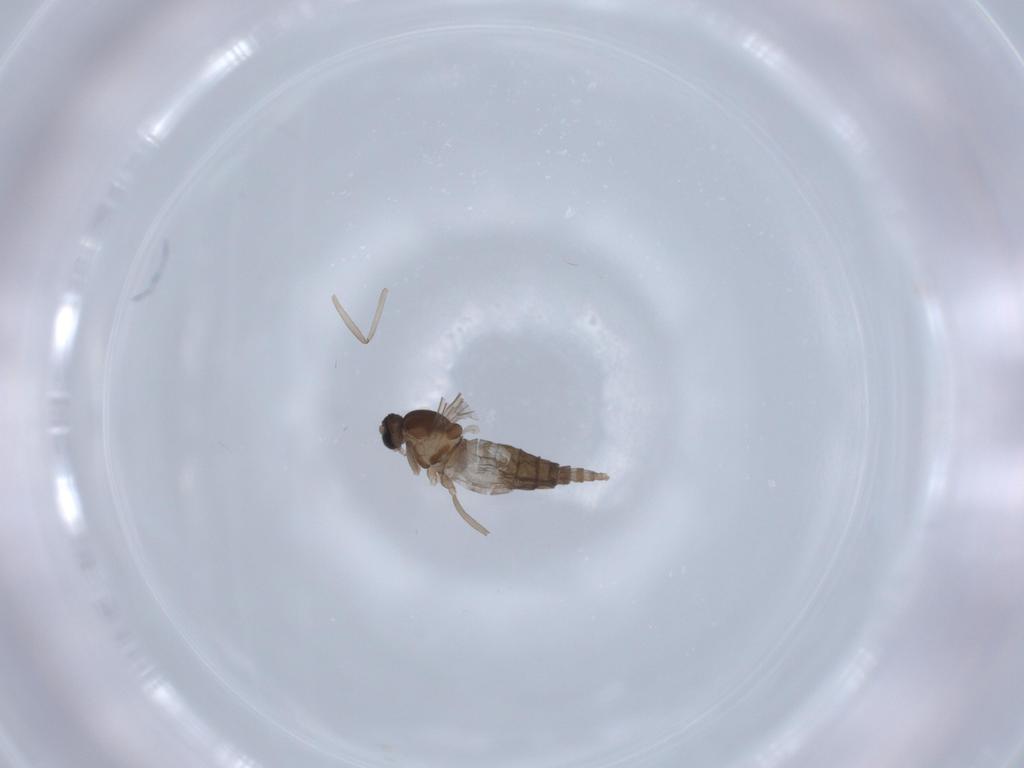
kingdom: Animalia
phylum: Arthropoda
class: Insecta
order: Diptera
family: Cecidomyiidae
